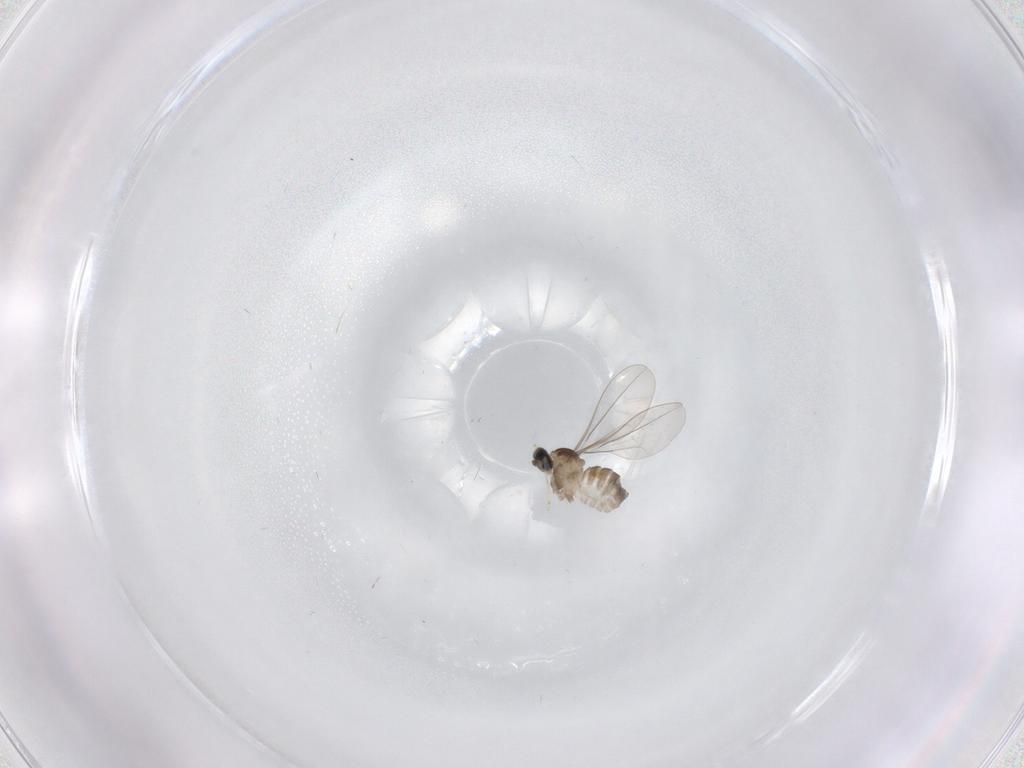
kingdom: Animalia
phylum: Arthropoda
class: Insecta
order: Diptera
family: Cecidomyiidae
